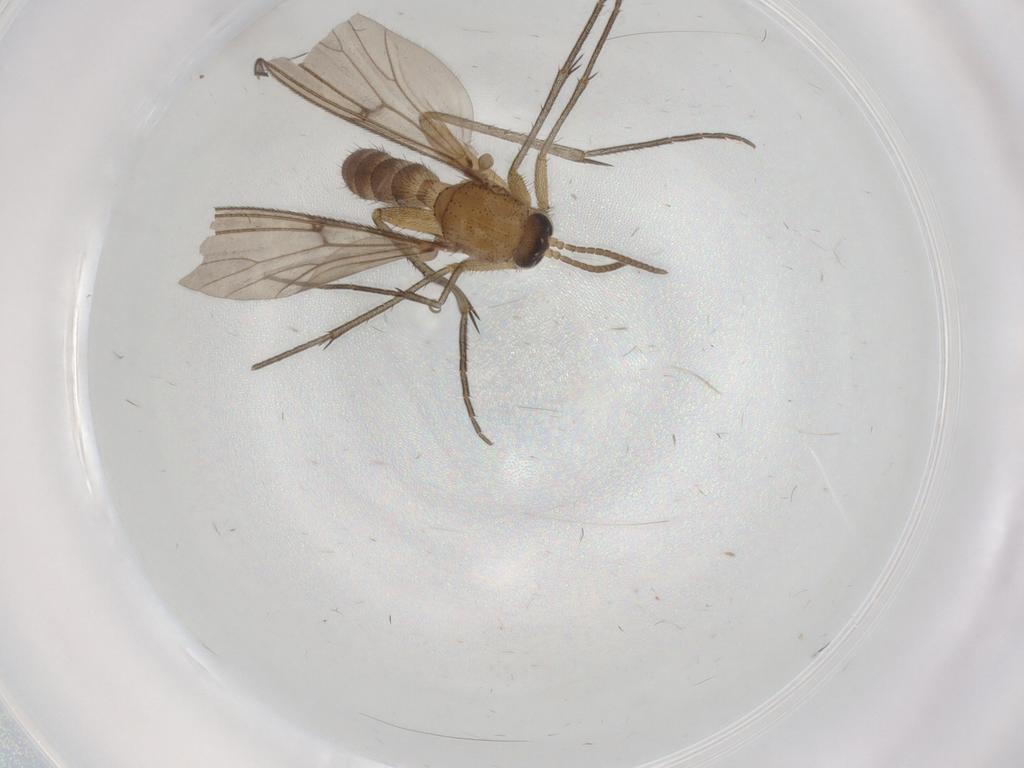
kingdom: Animalia
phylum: Arthropoda
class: Insecta
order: Diptera
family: Mycetophilidae
